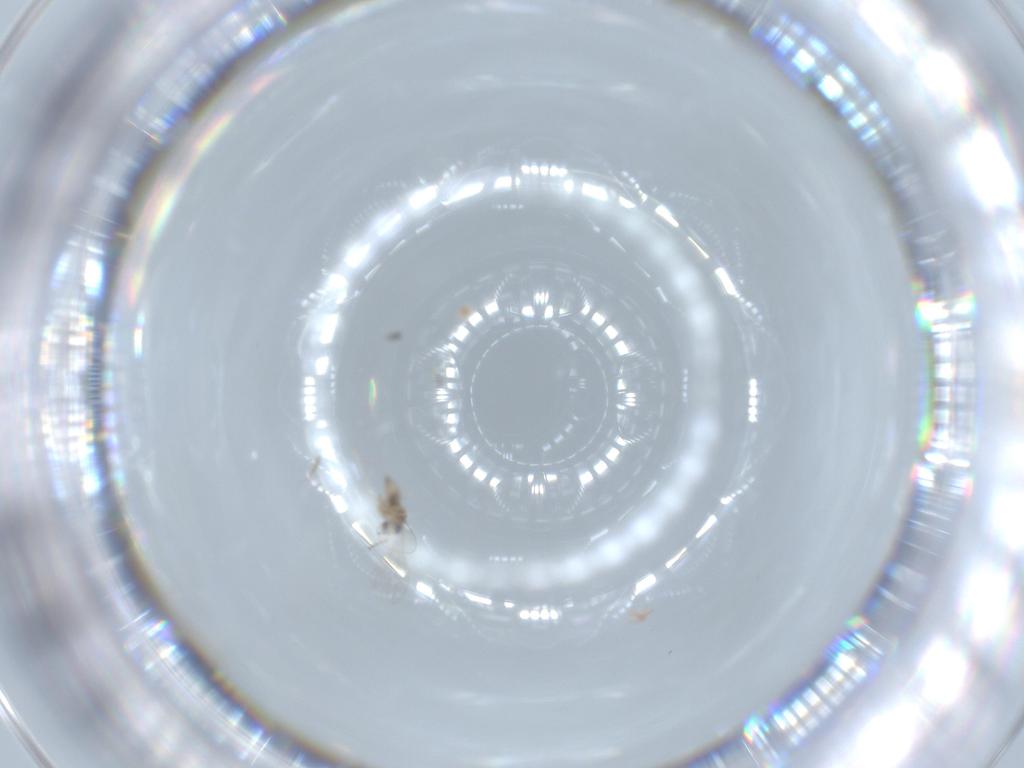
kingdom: Animalia
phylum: Arthropoda
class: Insecta
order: Diptera
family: Cecidomyiidae
